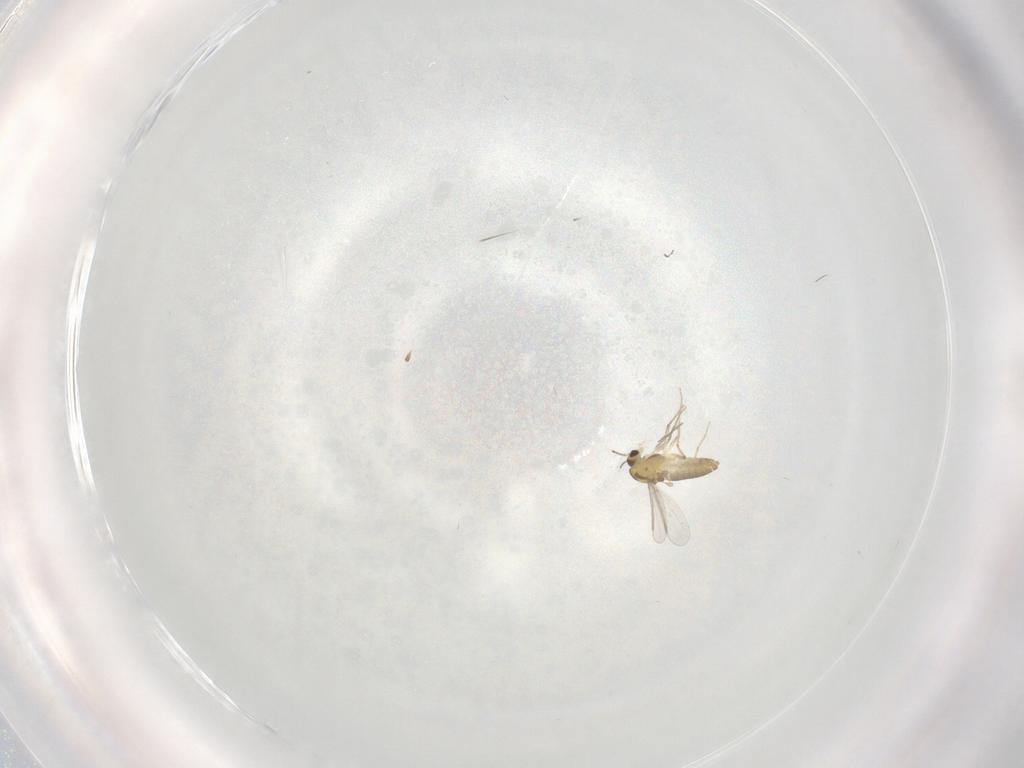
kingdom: Animalia
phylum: Arthropoda
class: Insecta
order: Diptera
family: Chironomidae
